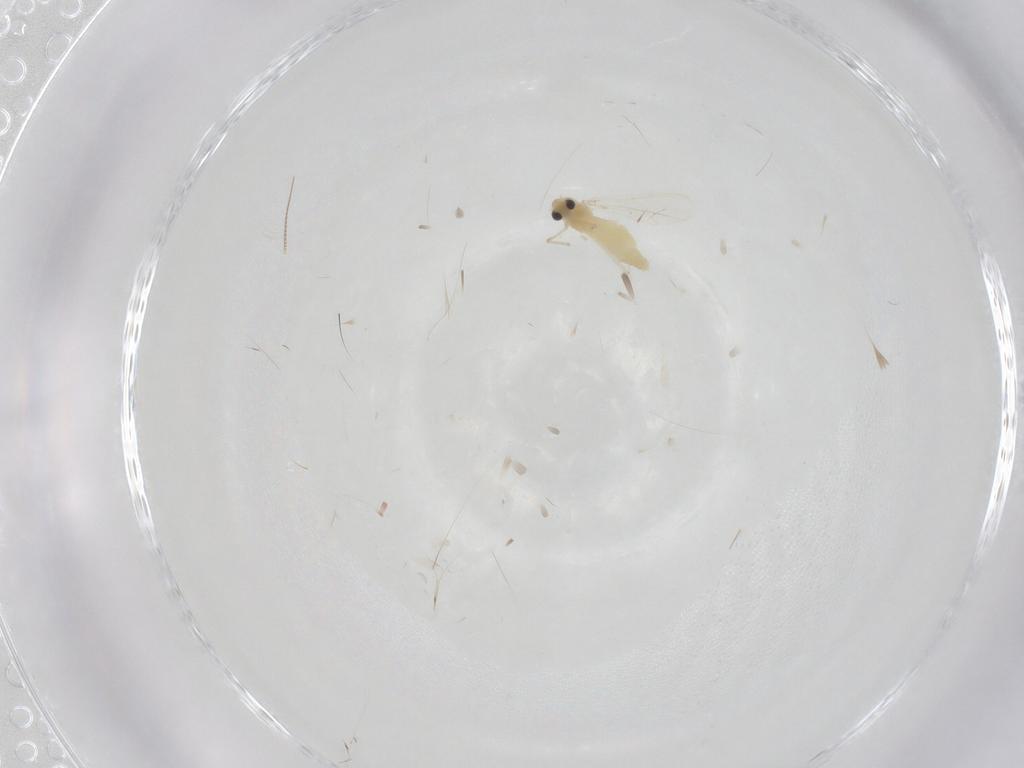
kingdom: Animalia
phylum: Arthropoda
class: Insecta
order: Diptera
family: Chironomidae
